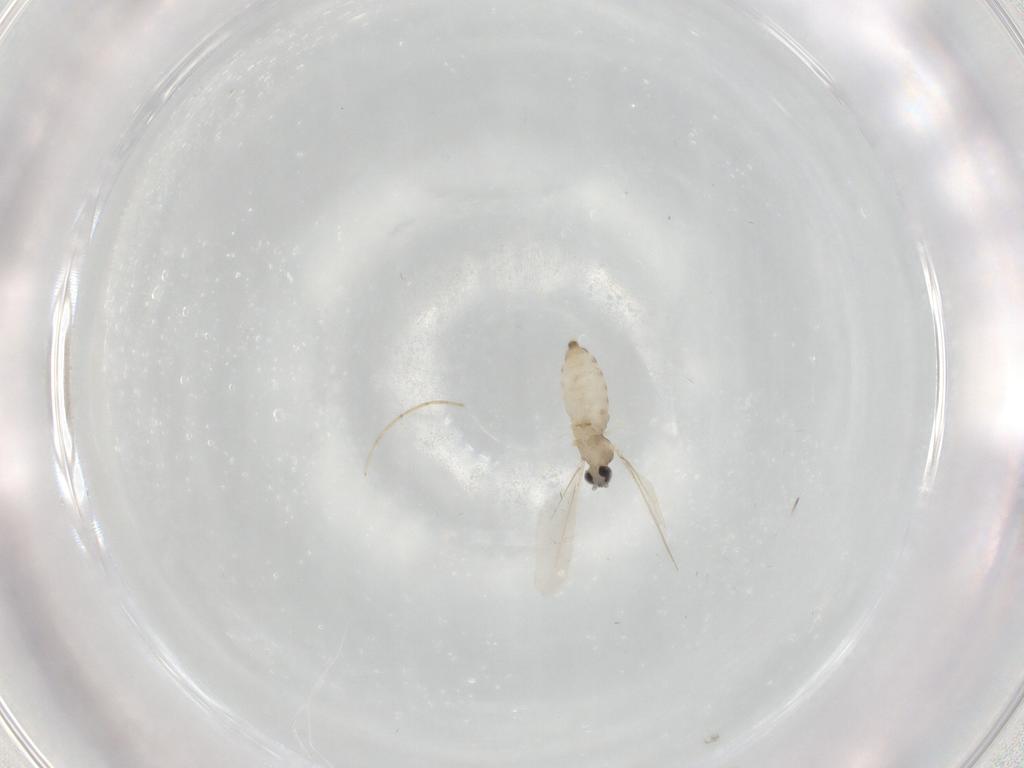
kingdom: Animalia
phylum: Arthropoda
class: Insecta
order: Diptera
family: Cecidomyiidae
